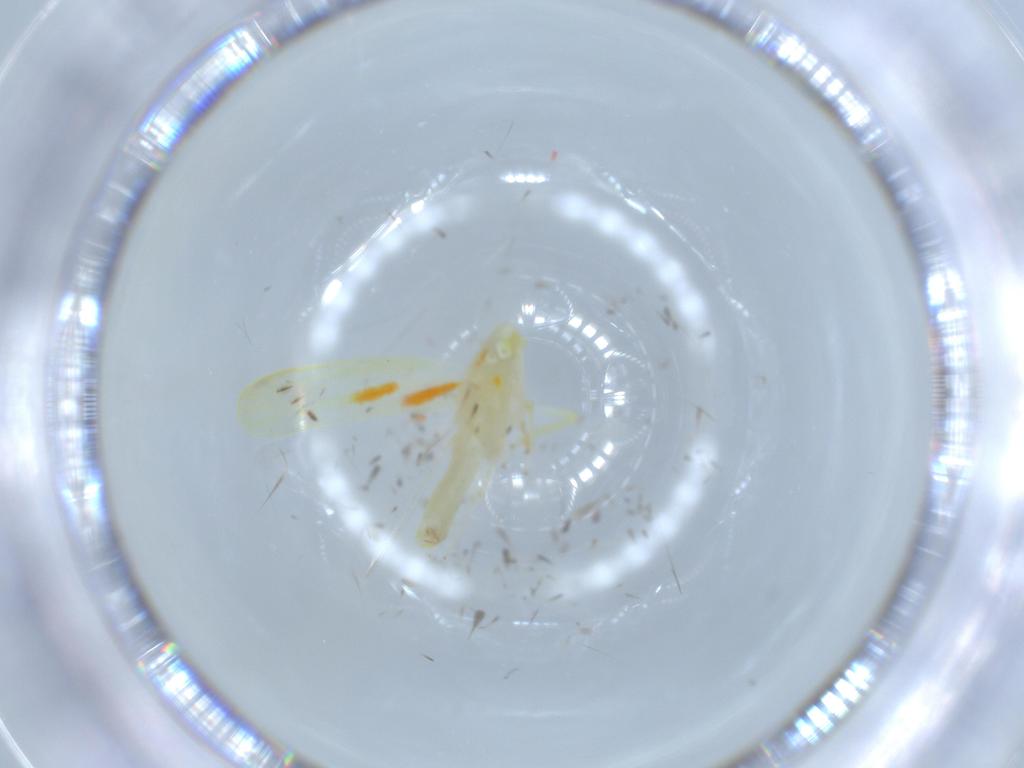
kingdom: Animalia
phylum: Arthropoda
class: Insecta
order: Hemiptera
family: Cicadellidae
